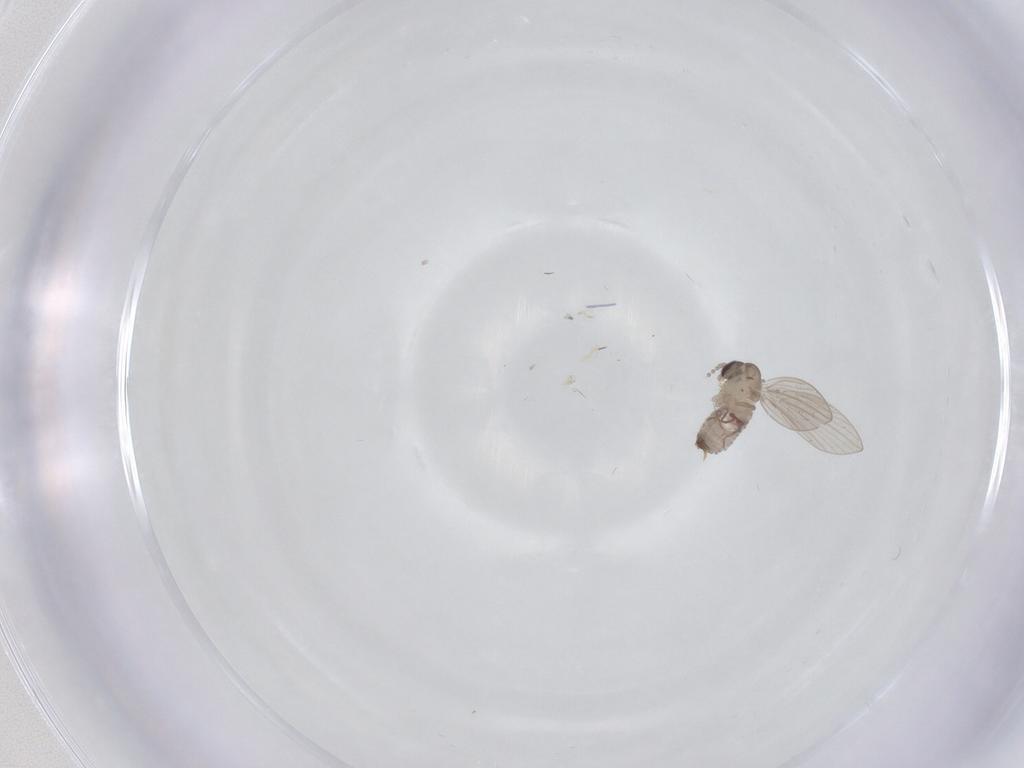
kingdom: Animalia
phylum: Arthropoda
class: Insecta
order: Diptera
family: Psychodidae
